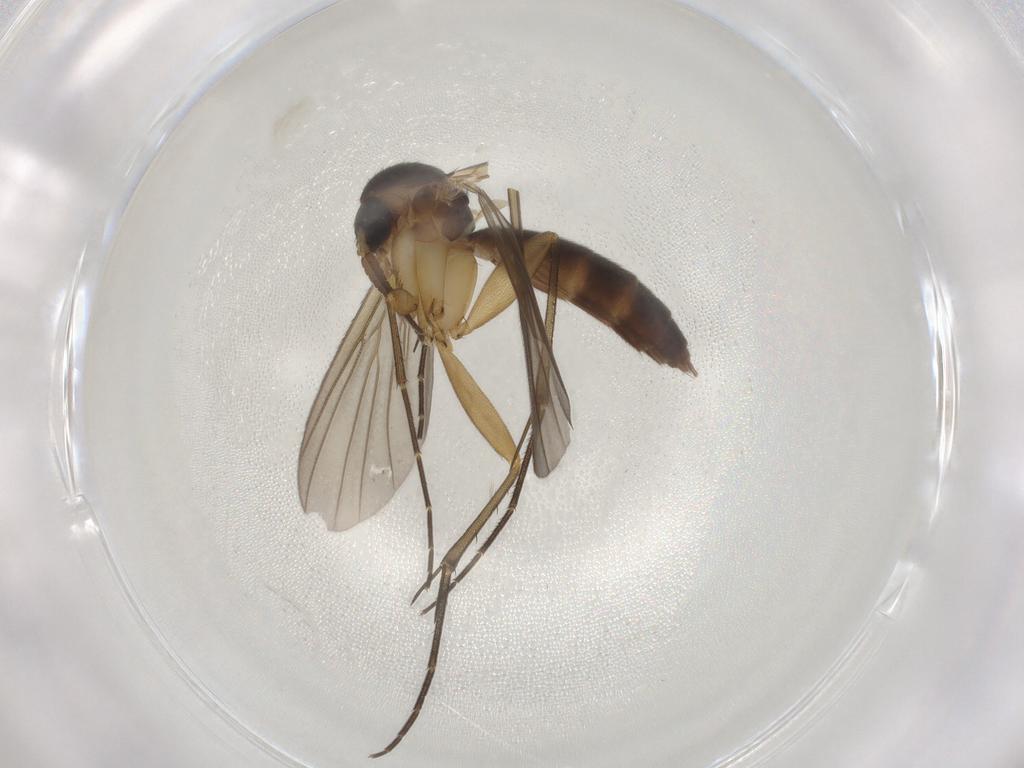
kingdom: Animalia
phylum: Arthropoda
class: Insecta
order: Diptera
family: Mycetophilidae
